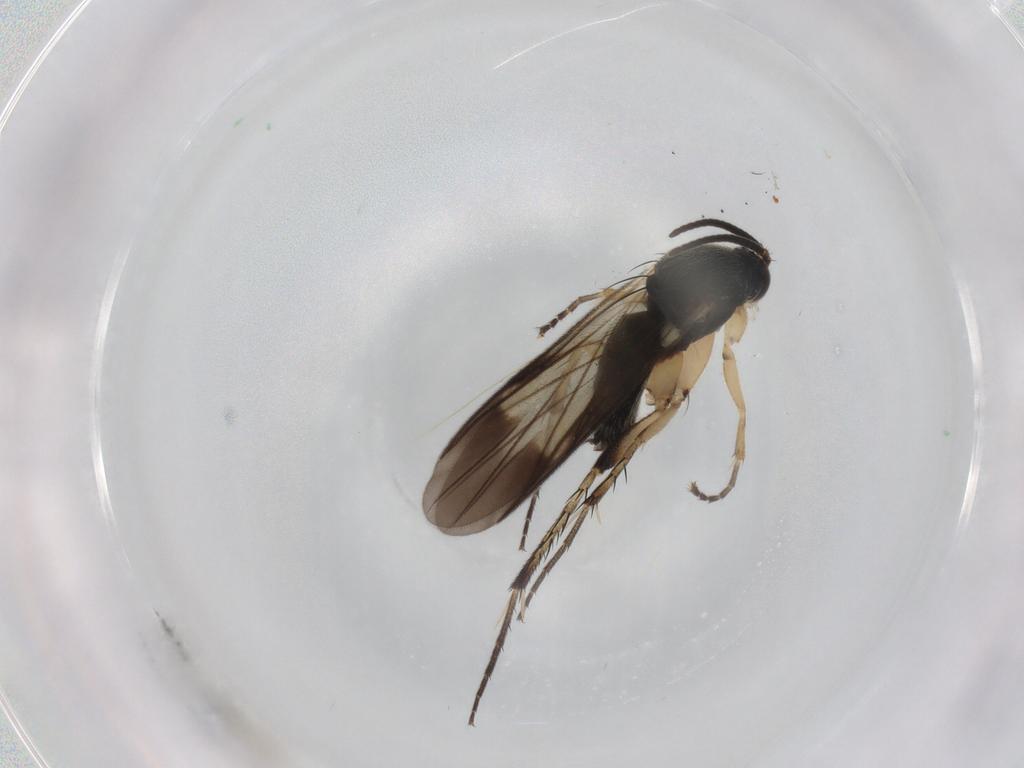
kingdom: Animalia
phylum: Arthropoda
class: Insecta
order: Diptera
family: Mycetophilidae
